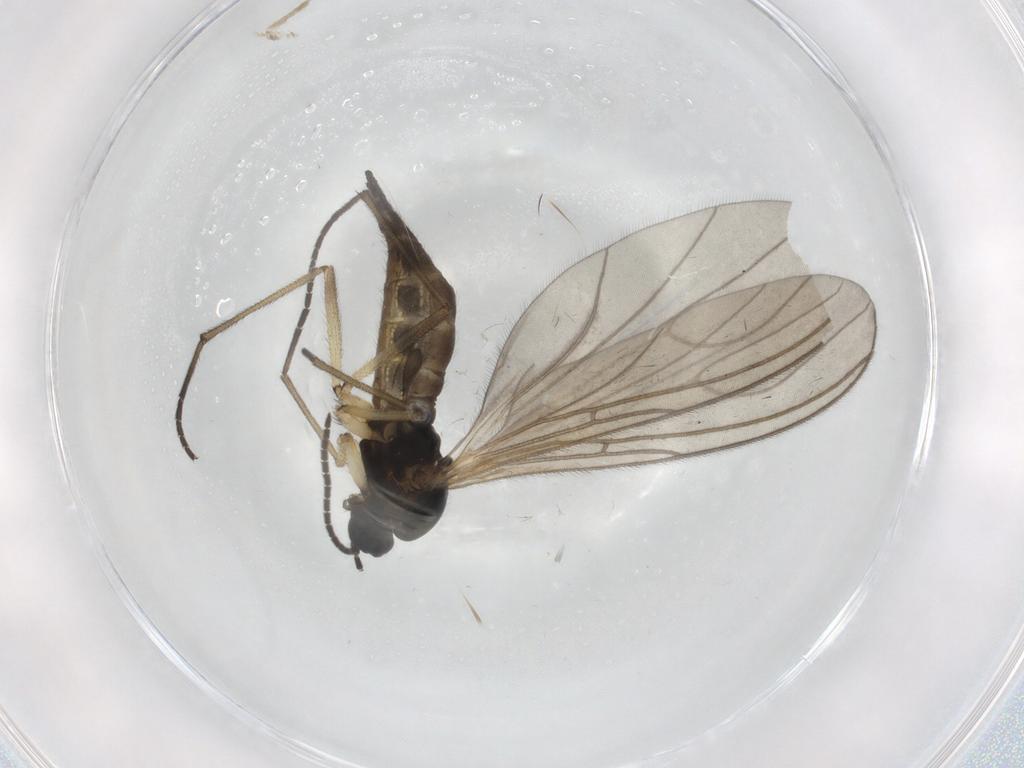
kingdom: Animalia
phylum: Arthropoda
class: Insecta
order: Diptera
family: Sciaridae
